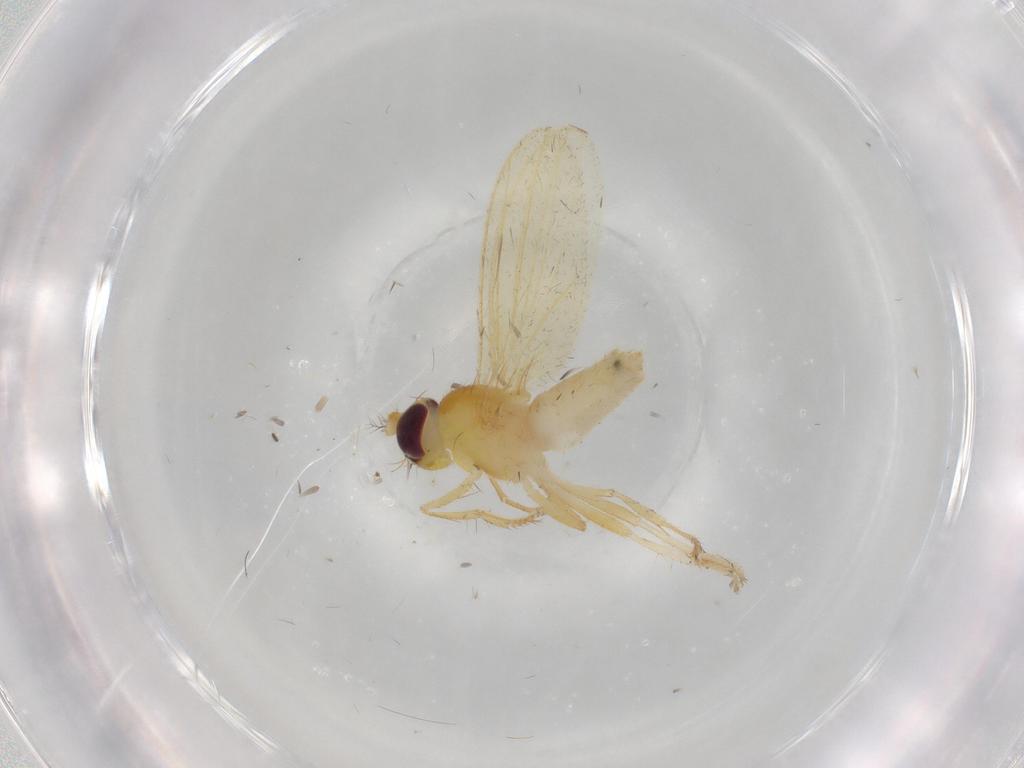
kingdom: Animalia
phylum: Arthropoda
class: Insecta
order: Diptera
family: Periscelididae
